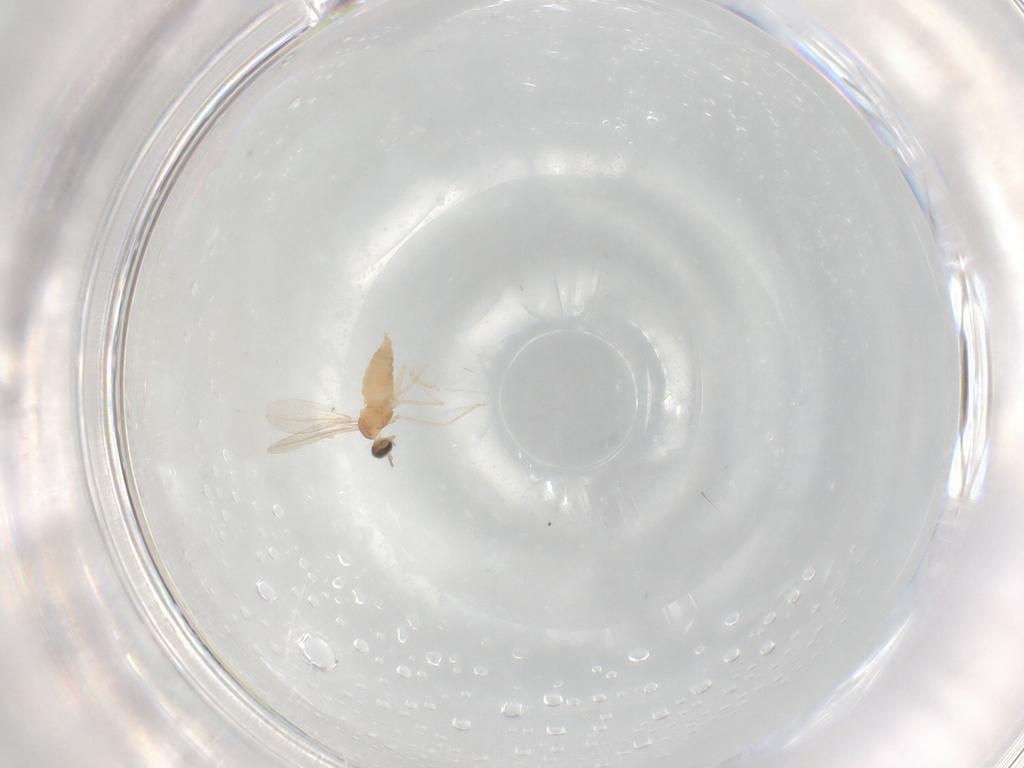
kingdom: Animalia
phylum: Arthropoda
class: Insecta
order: Diptera
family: Cecidomyiidae
